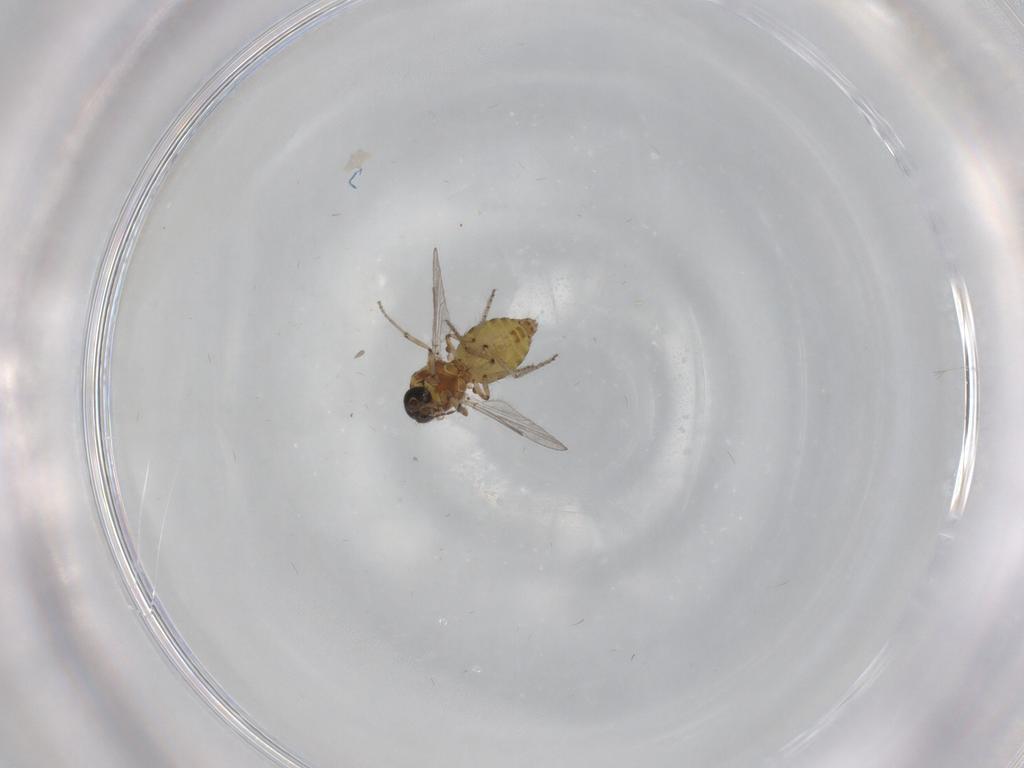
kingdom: Animalia
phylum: Arthropoda
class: Insecta
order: Diptera
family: Ceratopogonidae
